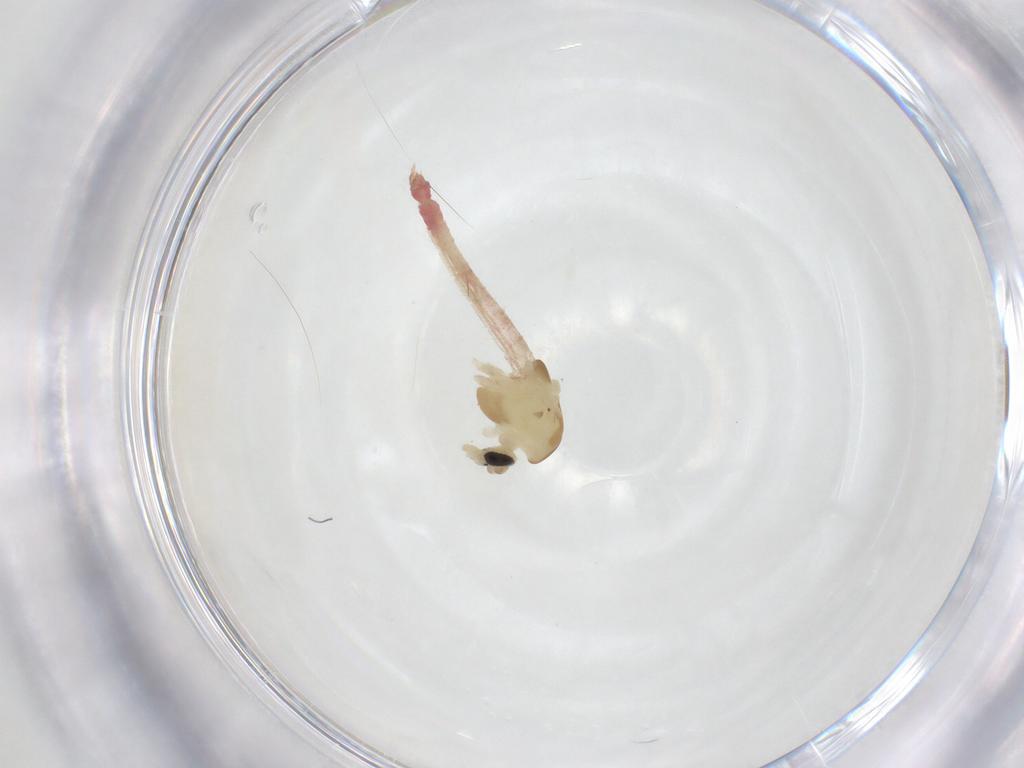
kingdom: Animalia
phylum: Arthropoda
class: Insecta
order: Diptera
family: Chironomidae
